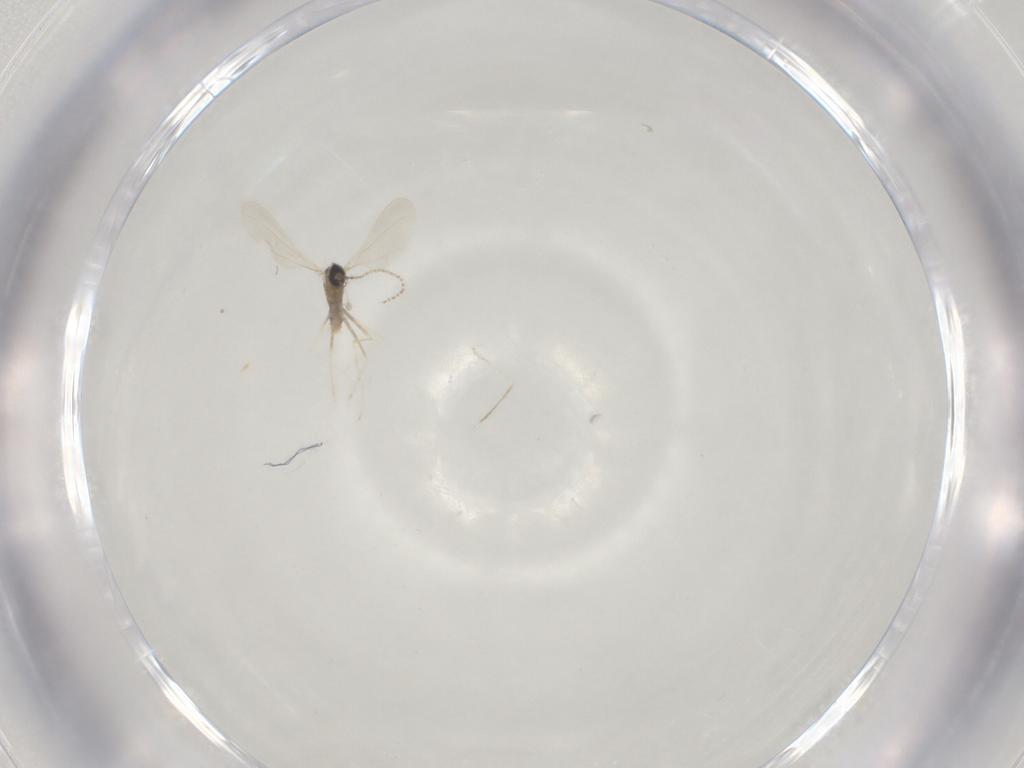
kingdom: Animalia
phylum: Arthropoda
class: Insecta
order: Diptera
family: Cecidomyiidae
